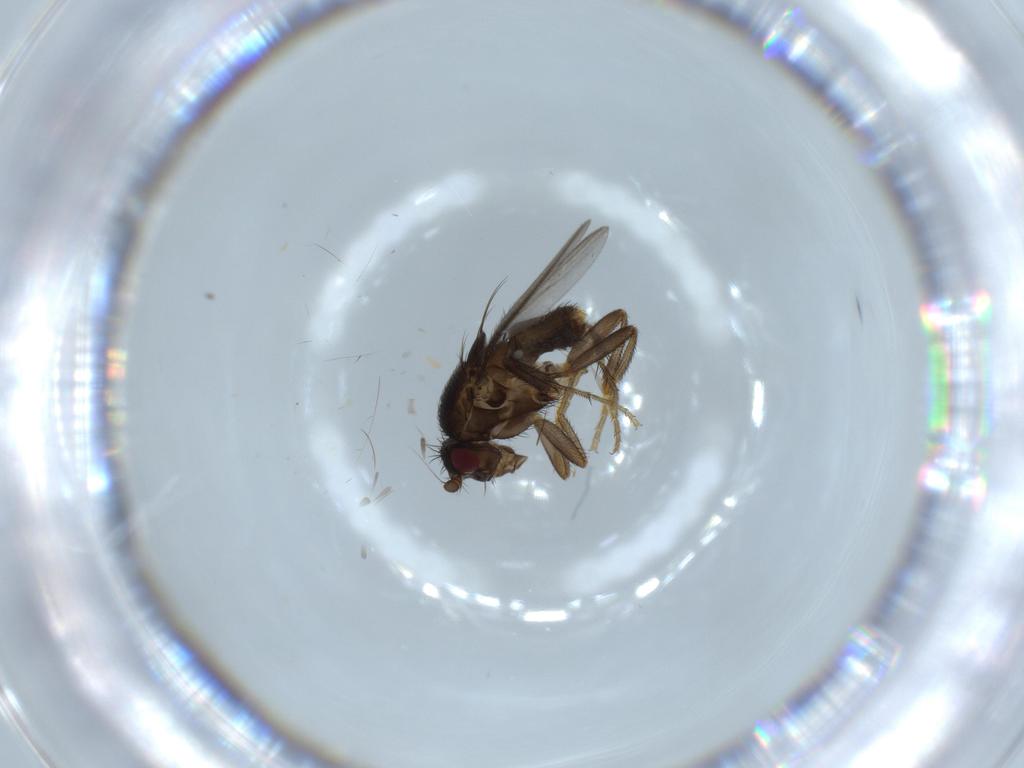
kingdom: Animalia
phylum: Arthropoda
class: Insecta
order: Diptera
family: Sphaeroceridae
